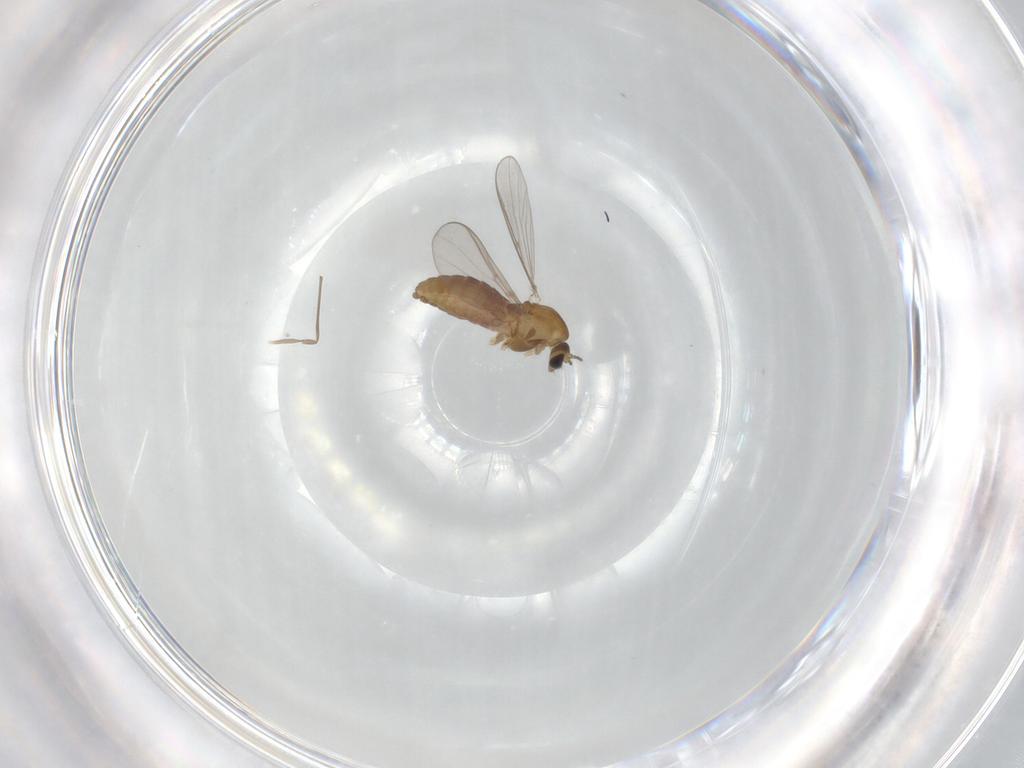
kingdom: Animalia
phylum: Arthropoda
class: Insecta
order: Diptera
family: Chironomidae
